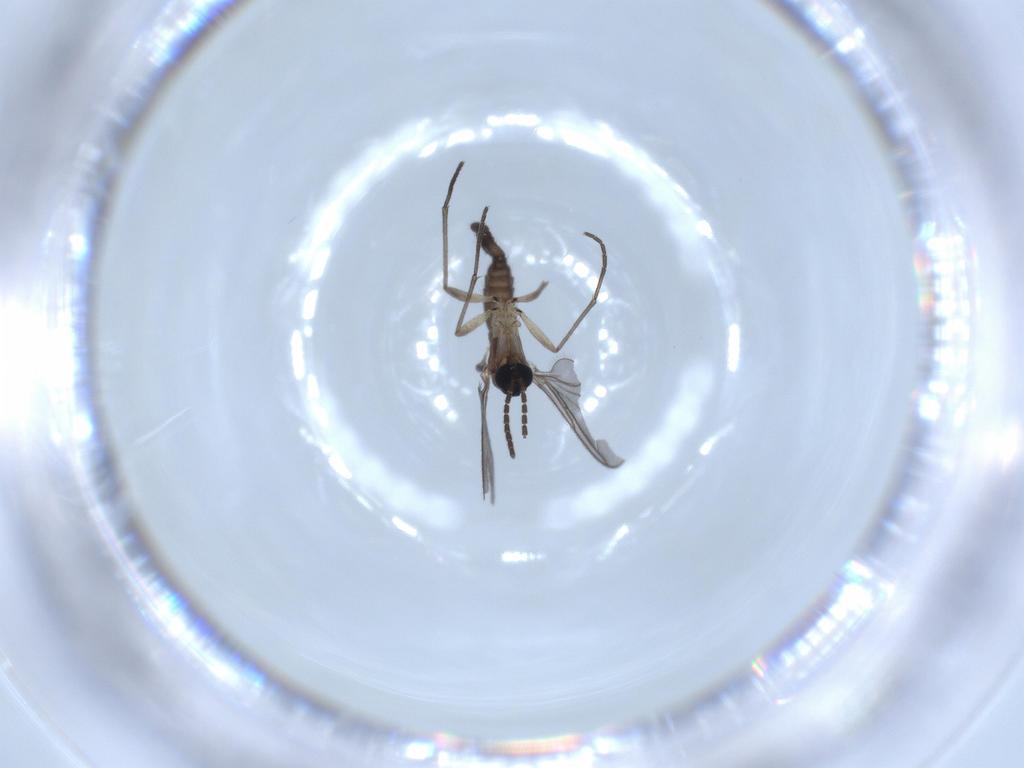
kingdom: Animalia
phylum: Arthropoda
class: Insecta
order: Diptera
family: Sciaridae
